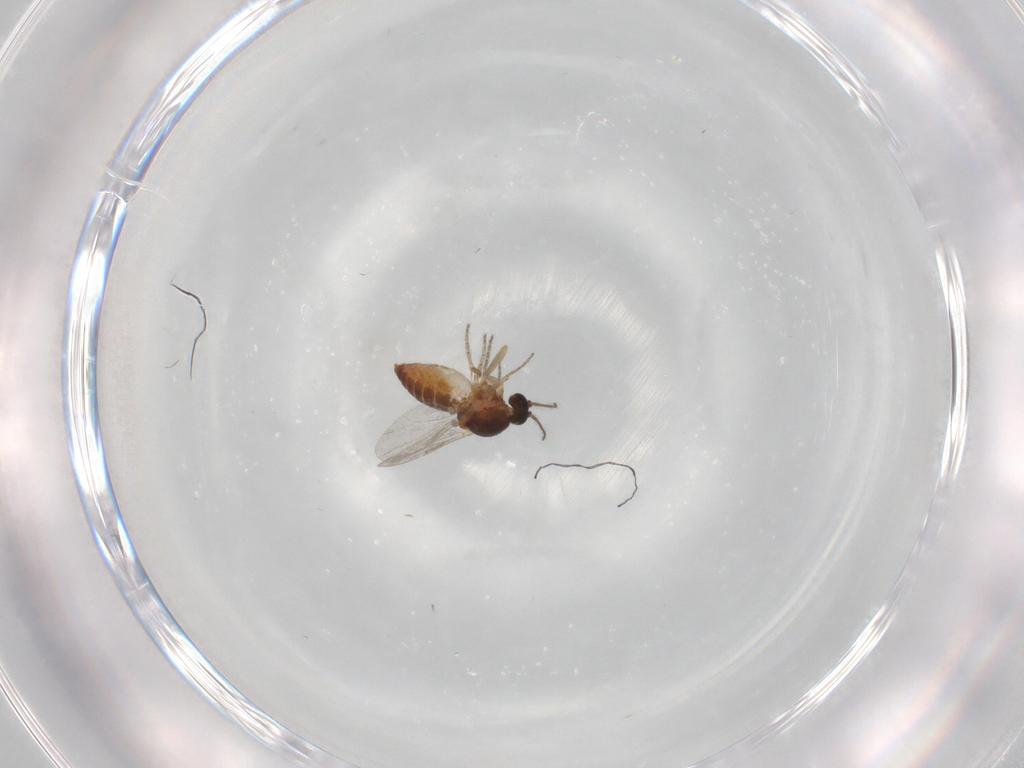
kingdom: Animalia
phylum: Arthropoda
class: Insecta
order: Diptera
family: Ceratopogonidae
